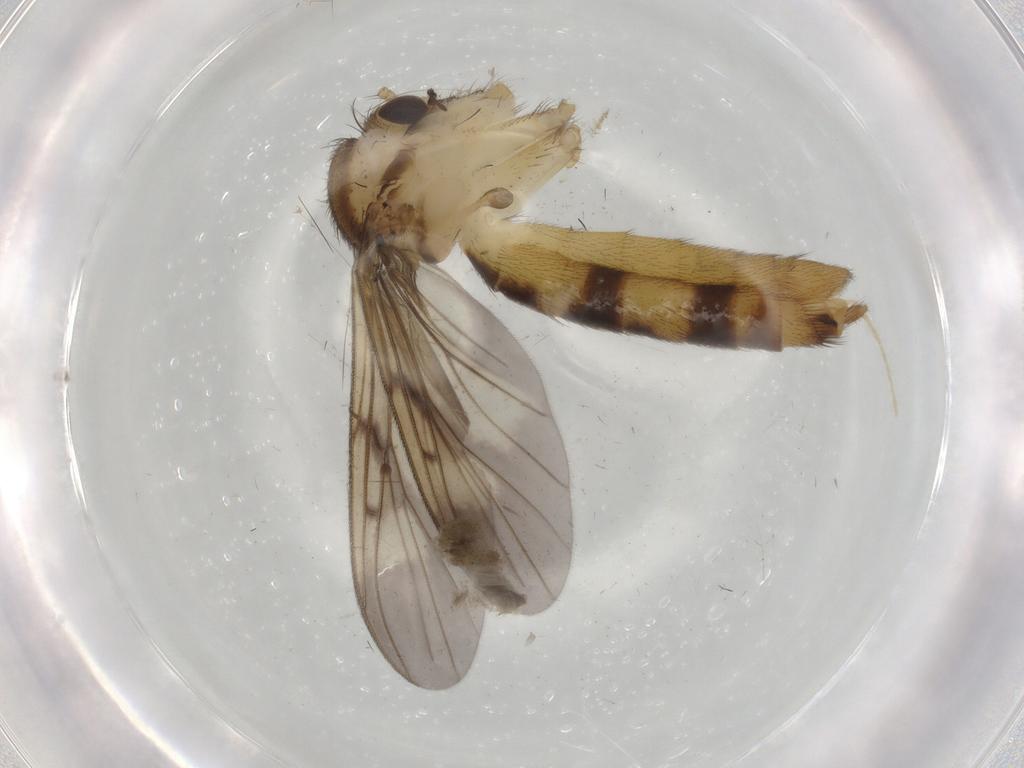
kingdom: Animalia
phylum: Arthropoda
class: Insecta
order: Diptera
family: Mycetophilidae
